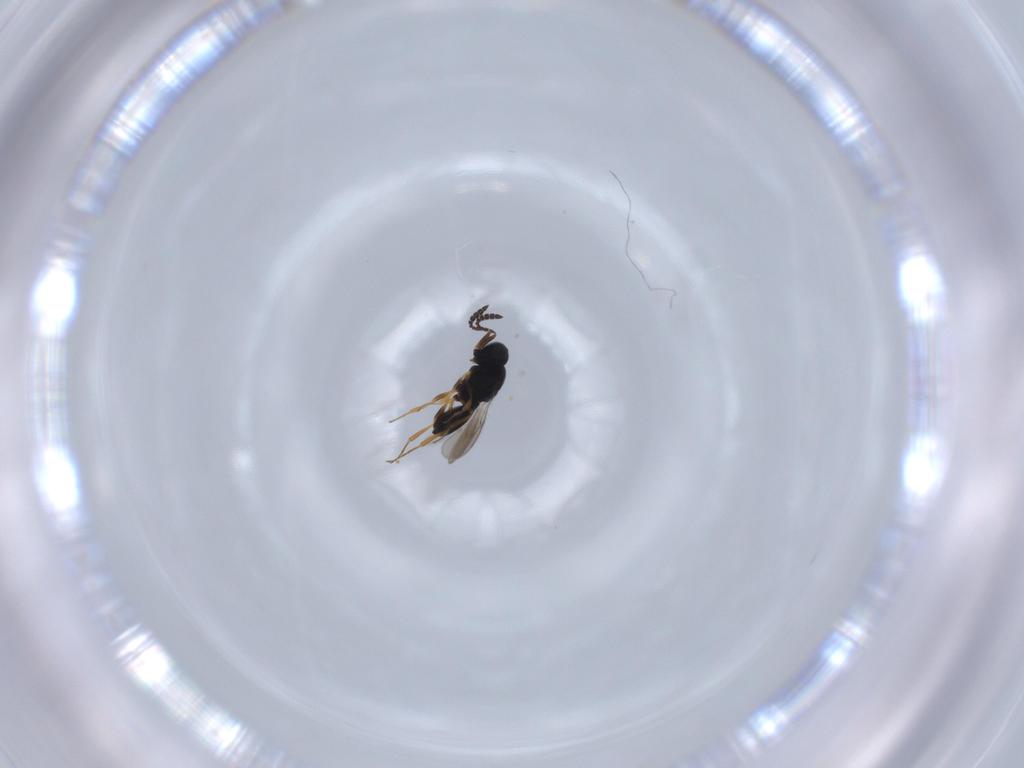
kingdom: Animalia
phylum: Arthropoda
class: Insecta
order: Hymenoptera
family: Scelionidae
